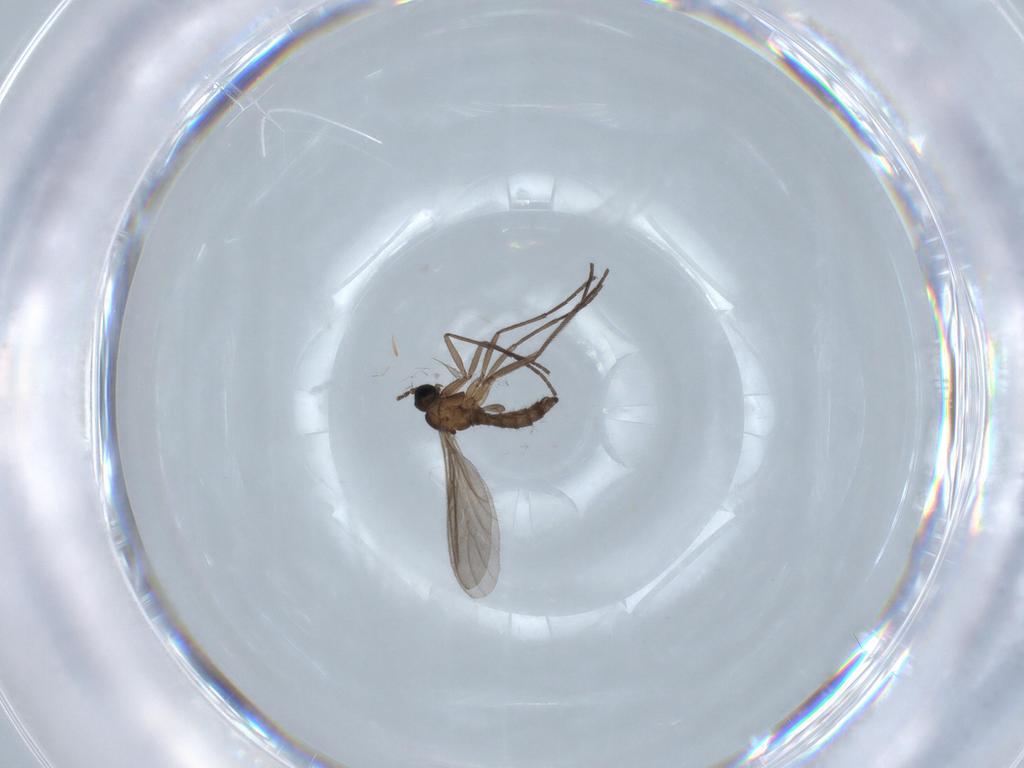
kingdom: Animalia
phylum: Arthropoda
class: Insecta
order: Diptera
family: Sciaridae
